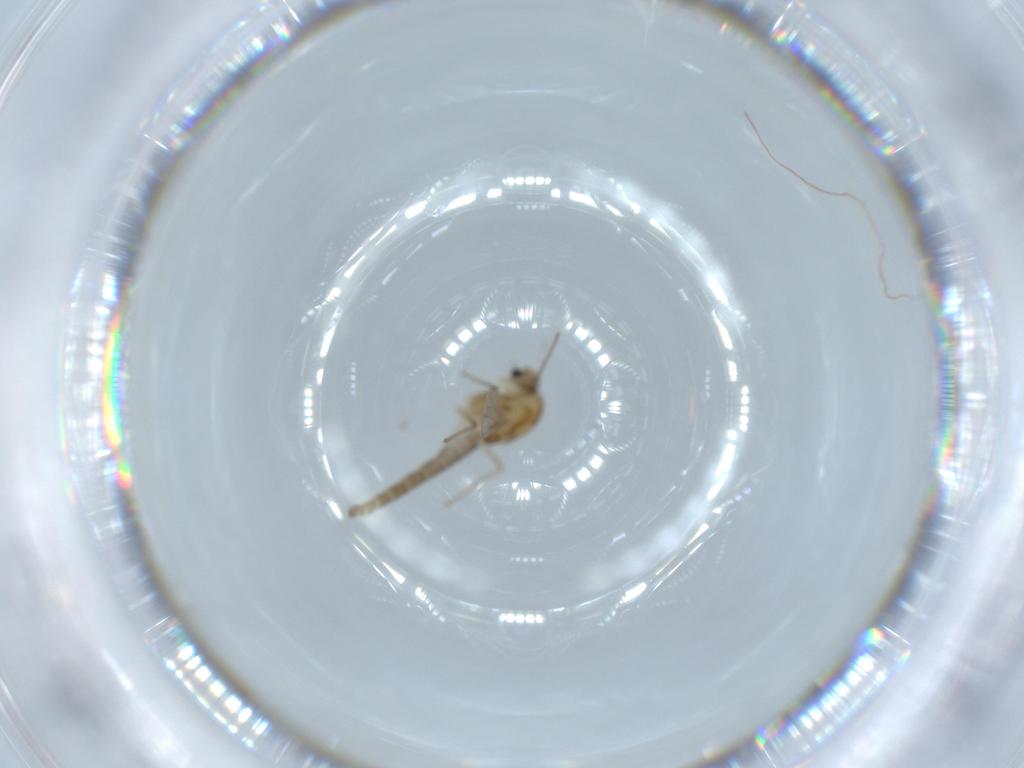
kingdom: Animalia
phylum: Arthropoda
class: Insecta
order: Diptera
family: Chironomidae
